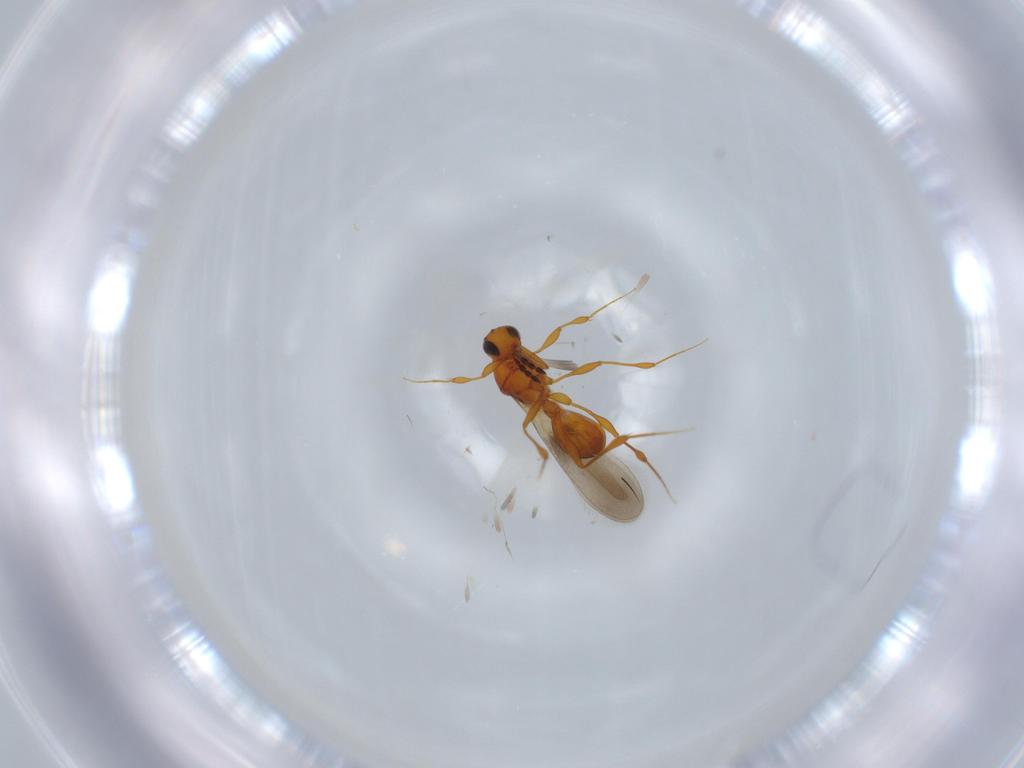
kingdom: Animalia
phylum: Arthropoda
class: Insecta
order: Hymenoptera
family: Platygastridae
